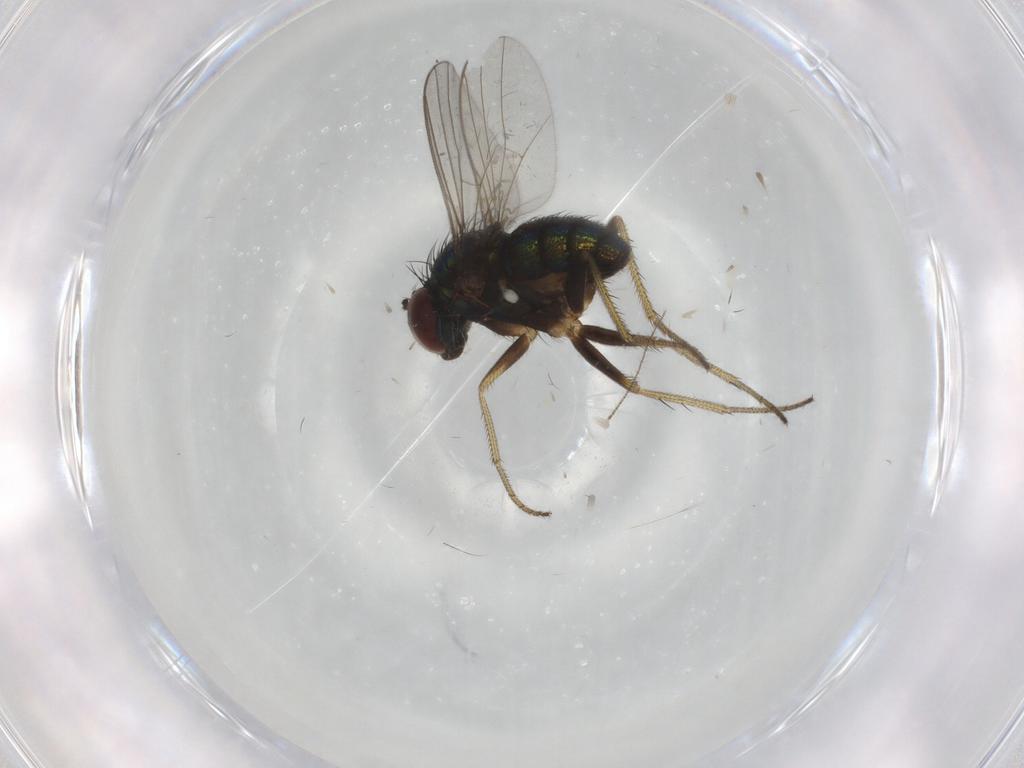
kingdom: Animalia
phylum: Arthropoda
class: Insecta
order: Diptera
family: Dolichopodidae
